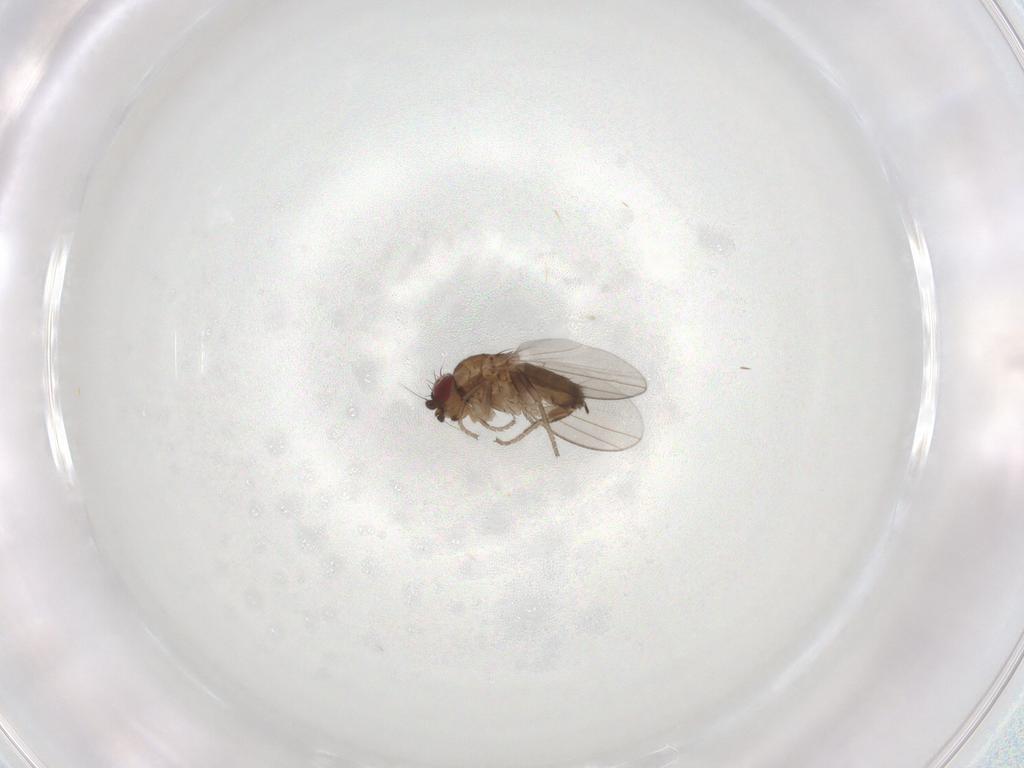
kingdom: Animalia
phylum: Arthropoda
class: Insecta
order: Diptera
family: Milichiidae
